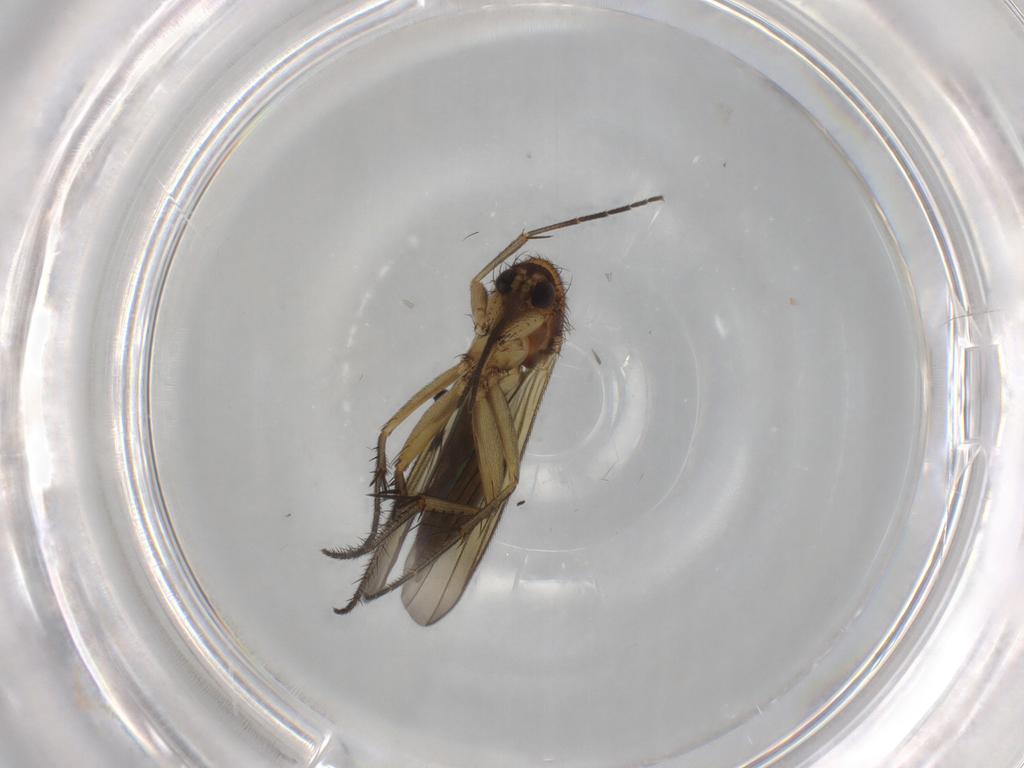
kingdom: Animalia
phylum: Arthropoda
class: Insecta
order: Diptera
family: Mycetophilidae
